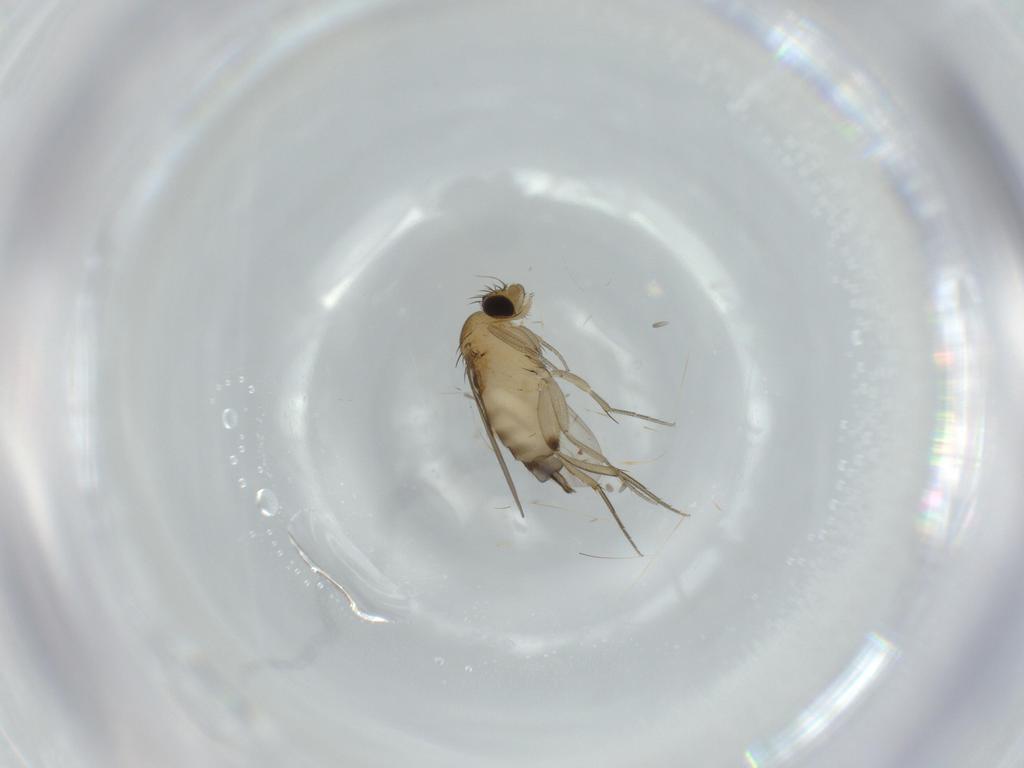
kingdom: Animalia
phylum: Arthropoda
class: Insecta
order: Diptera
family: Phoridae
